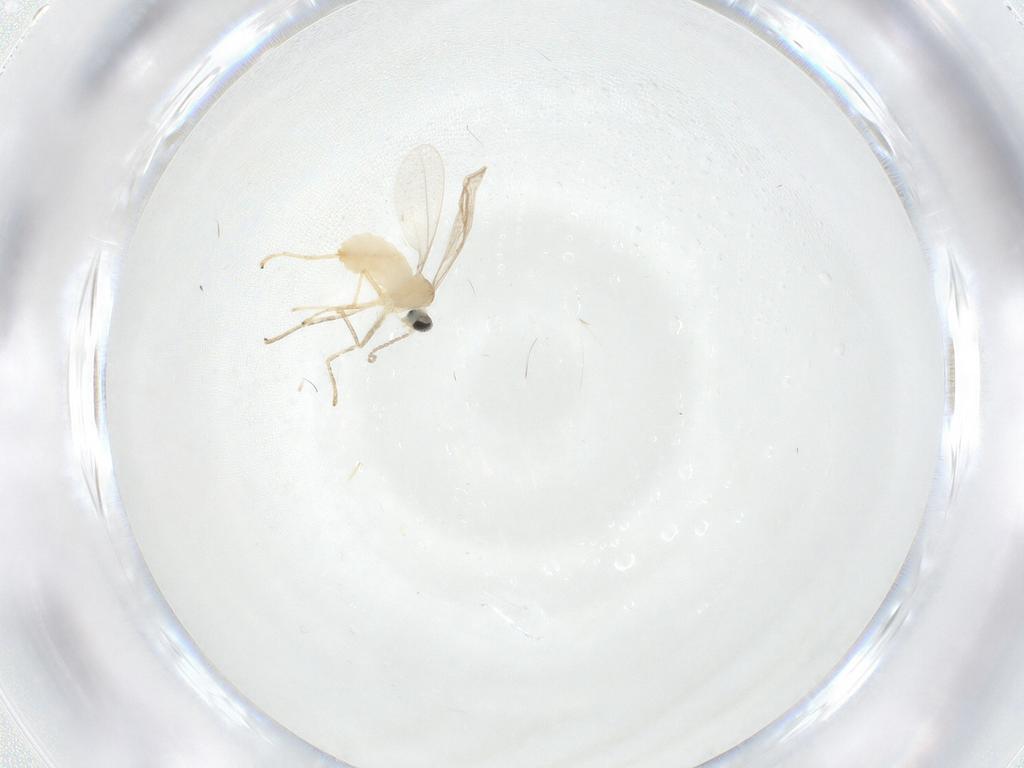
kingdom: Animalia
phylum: Arthropoda
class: Insecta
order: Diptera
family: Cecidomyiidae
